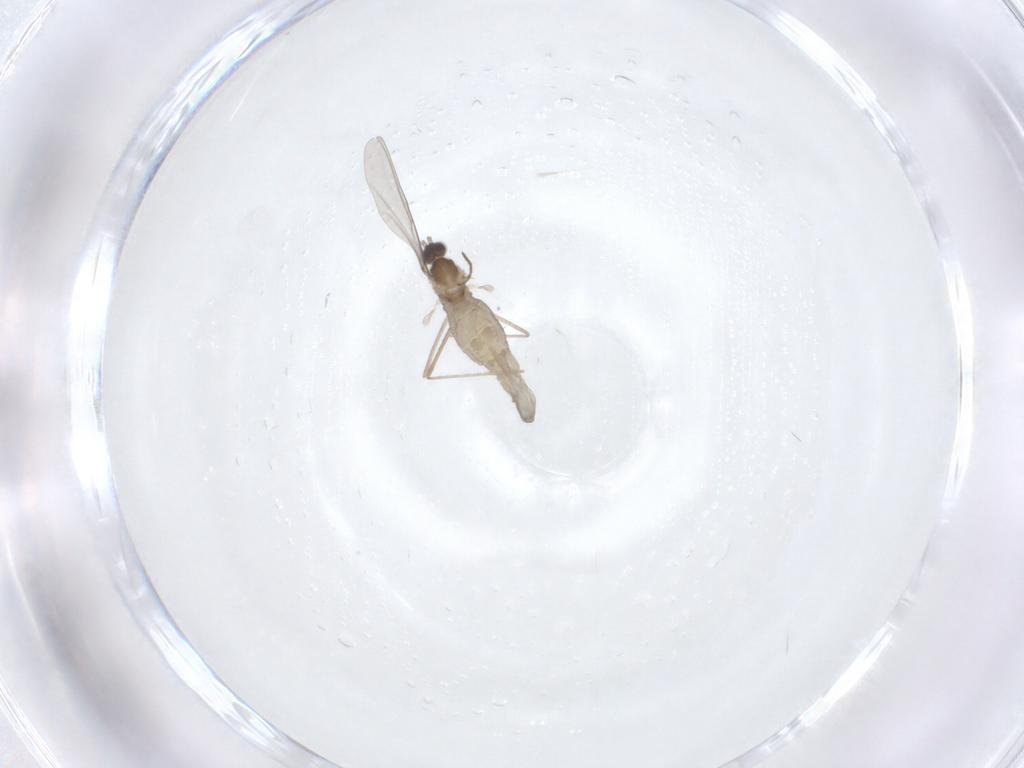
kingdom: Animalia
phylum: Arthropoda
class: Insecta
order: Diptera
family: Cecidomyiidae
